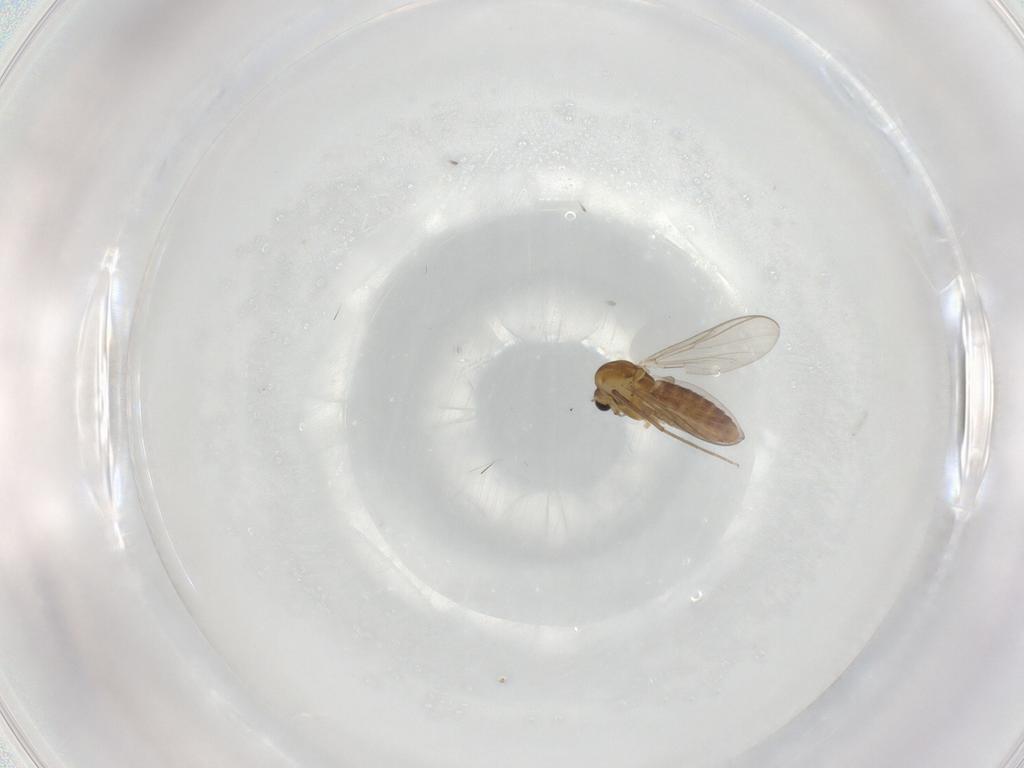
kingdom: Animalia
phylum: Arthropoda
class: Insecta
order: Diptera
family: Chironomidae
